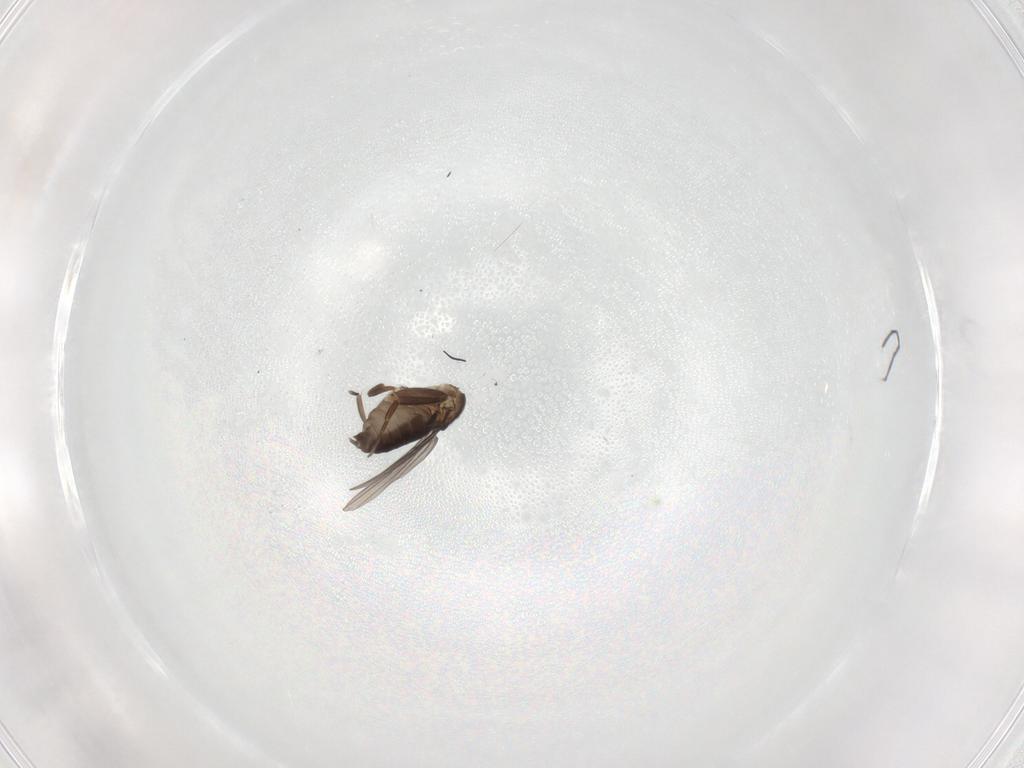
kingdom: Animalia
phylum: Arthropoda
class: Insecta
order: Diptera
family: Phoridae
